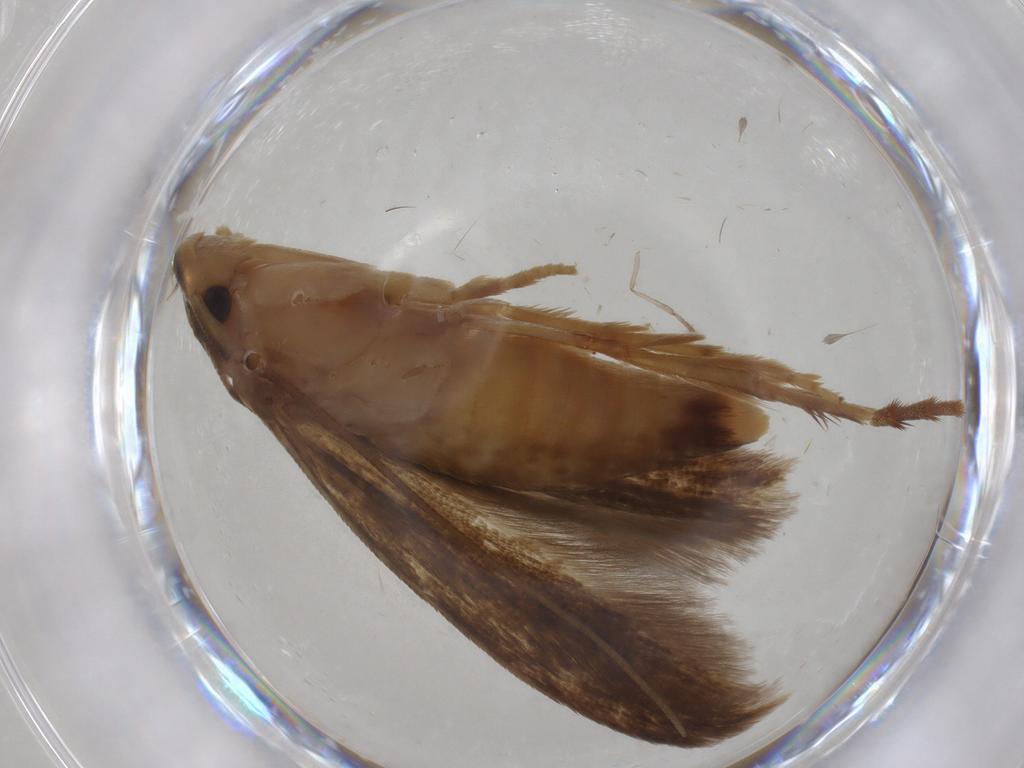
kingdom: Animalia
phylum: Arthropoda
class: Insecta
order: Lepidoptera
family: Tineidae
